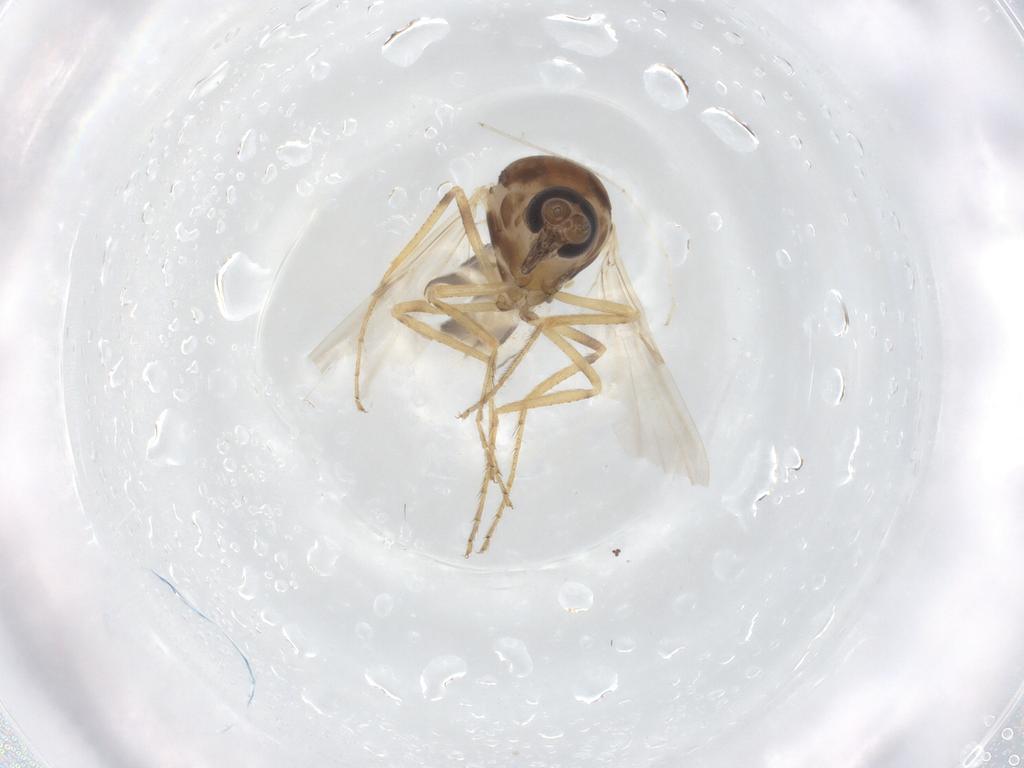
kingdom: Animalia
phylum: Arthropoda
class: Insecta
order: Diptera
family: Ceratopogonidae
